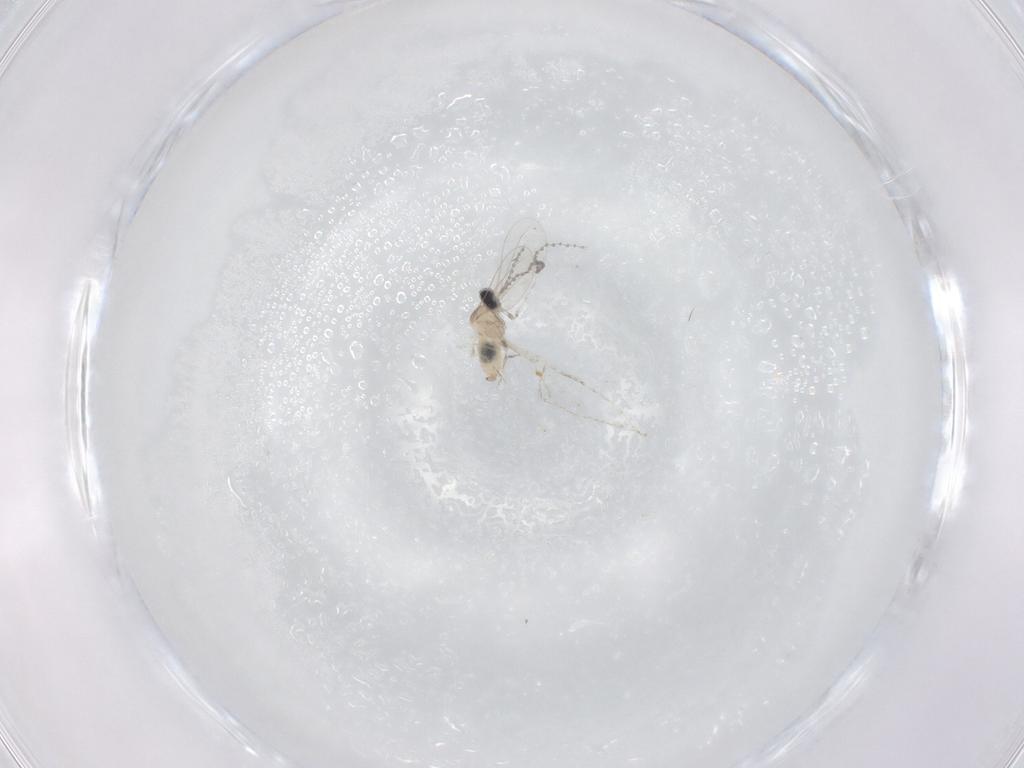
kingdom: Animalia
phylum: Arthropoda
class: Insecta
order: Diptera
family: Cecidomyiidae
